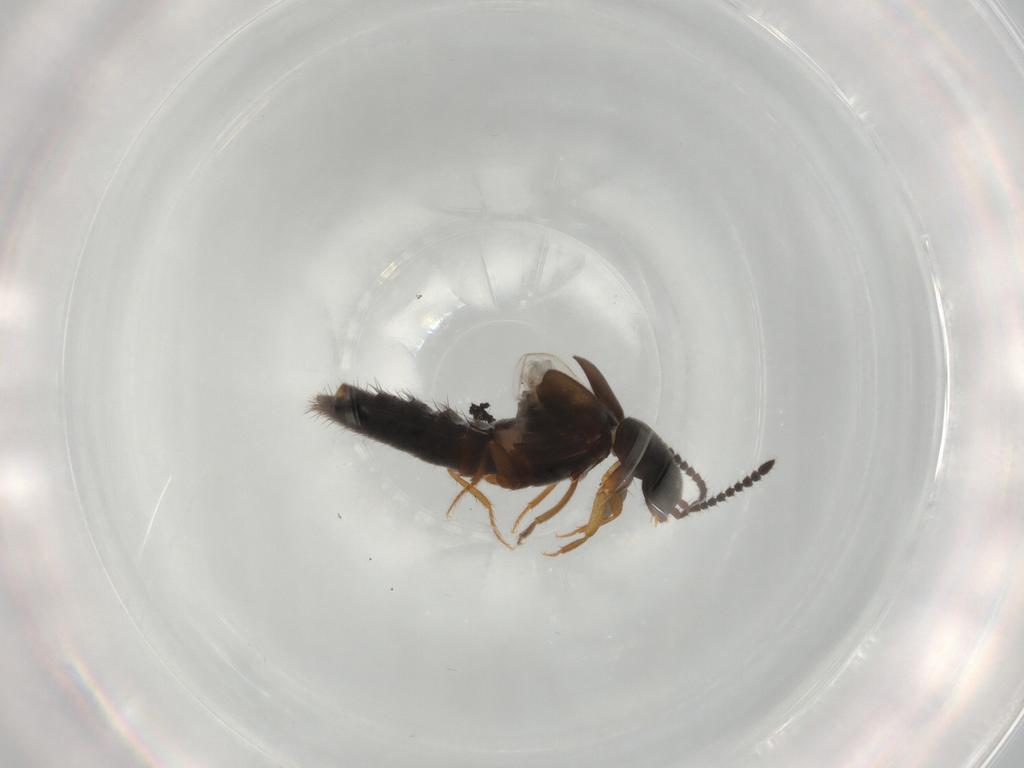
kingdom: Animalia
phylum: Arthropoda
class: Insecta
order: Coleoptera
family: Staphylinidae
